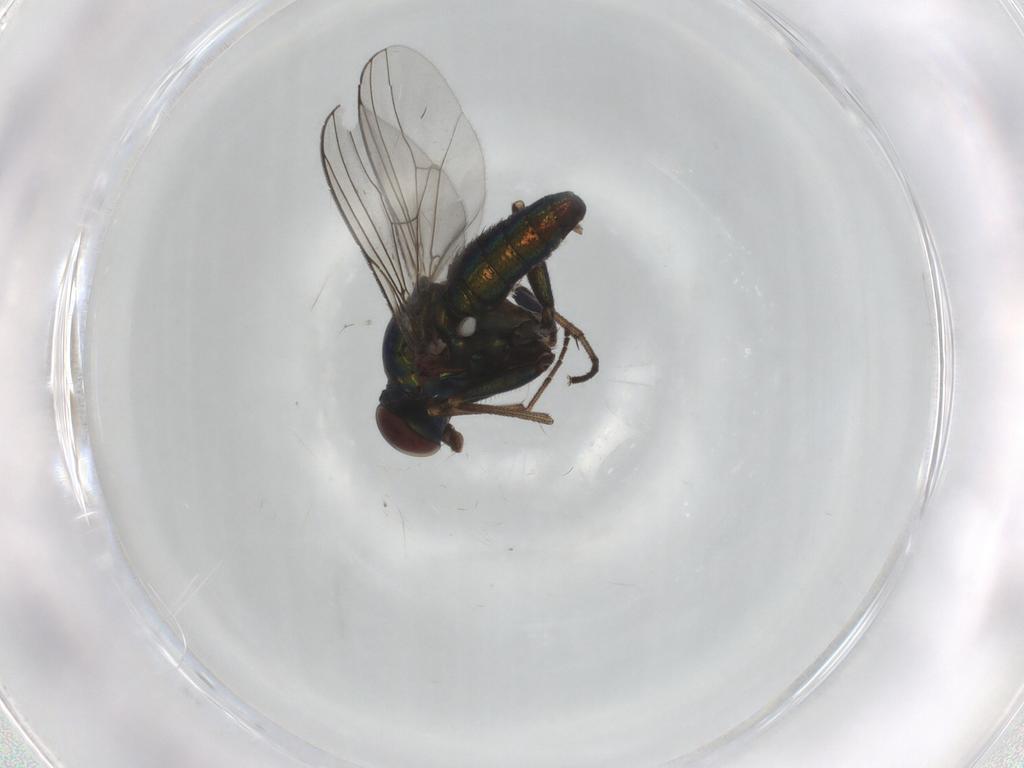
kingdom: Animalia
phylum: Arthropoda
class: Insecta
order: Diptera
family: Dolichopodidae
